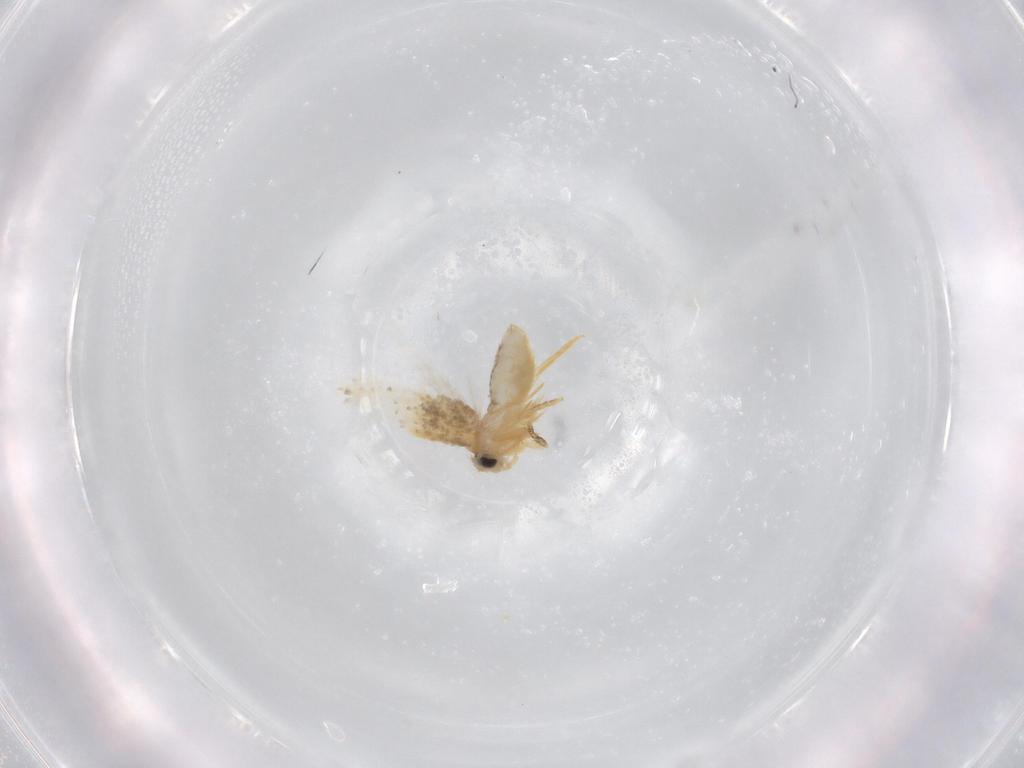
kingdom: Animalia
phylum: Arthropoda
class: Insecta
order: Lepidoptera
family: Nepticulidae
